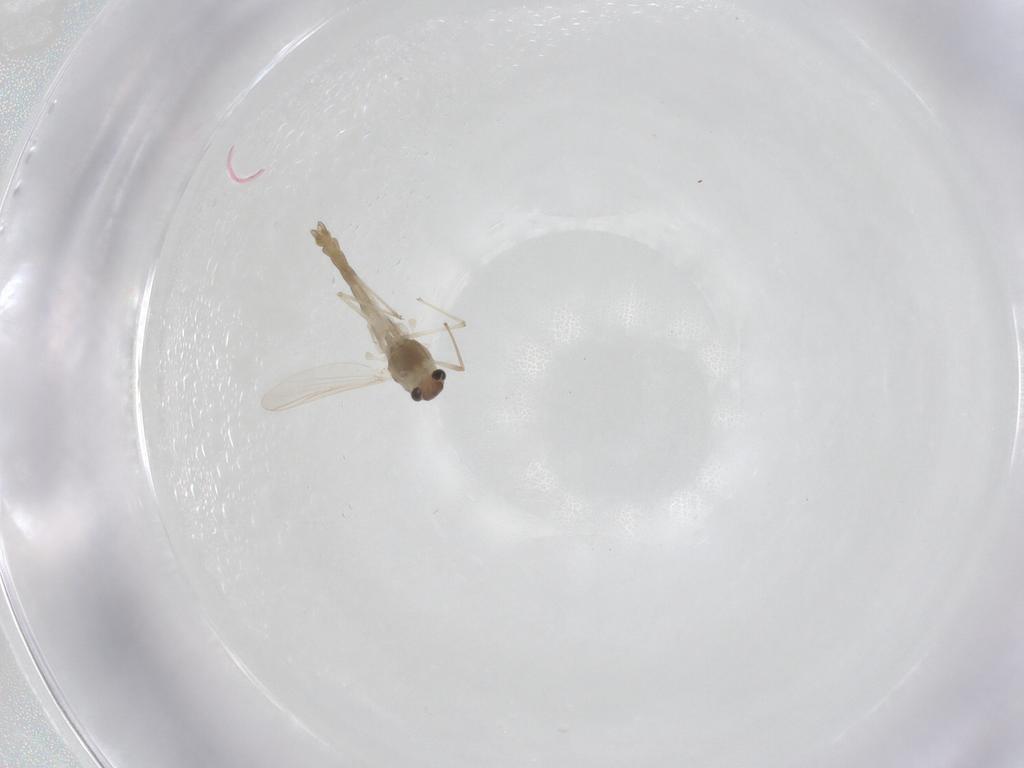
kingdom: Animalia
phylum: Arthropoda
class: Insecta
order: Diptera
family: Chironomidae
